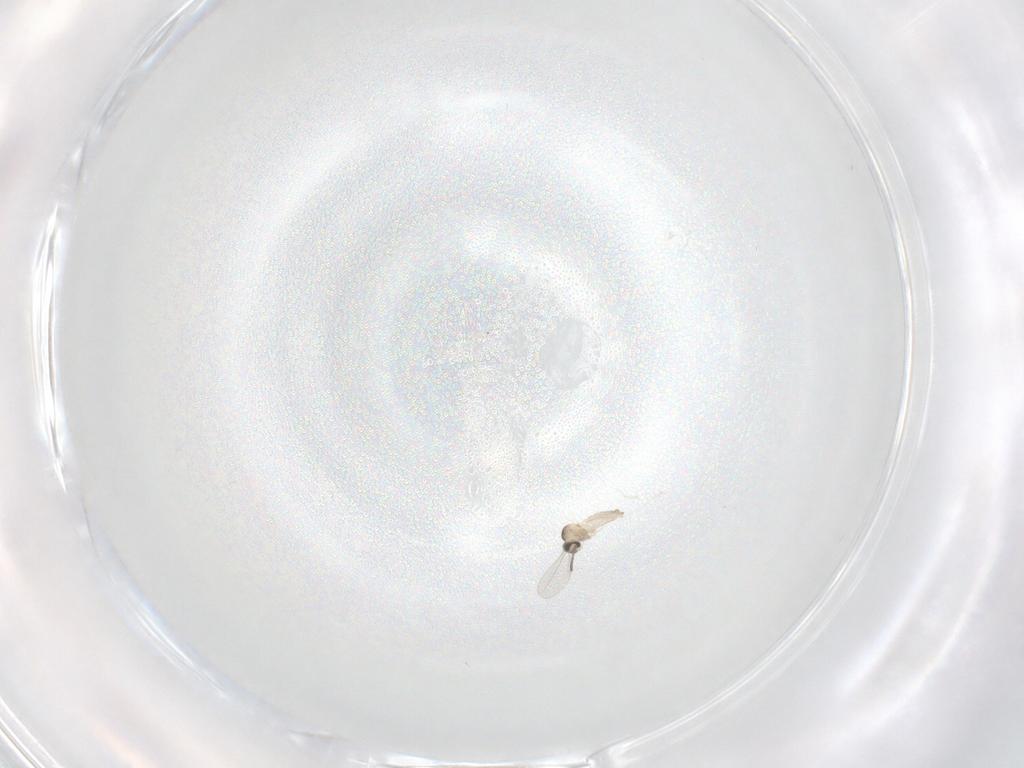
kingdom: Animalia
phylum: Arthropoda
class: Insecta
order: Diptera
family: Cecidomyiidae
